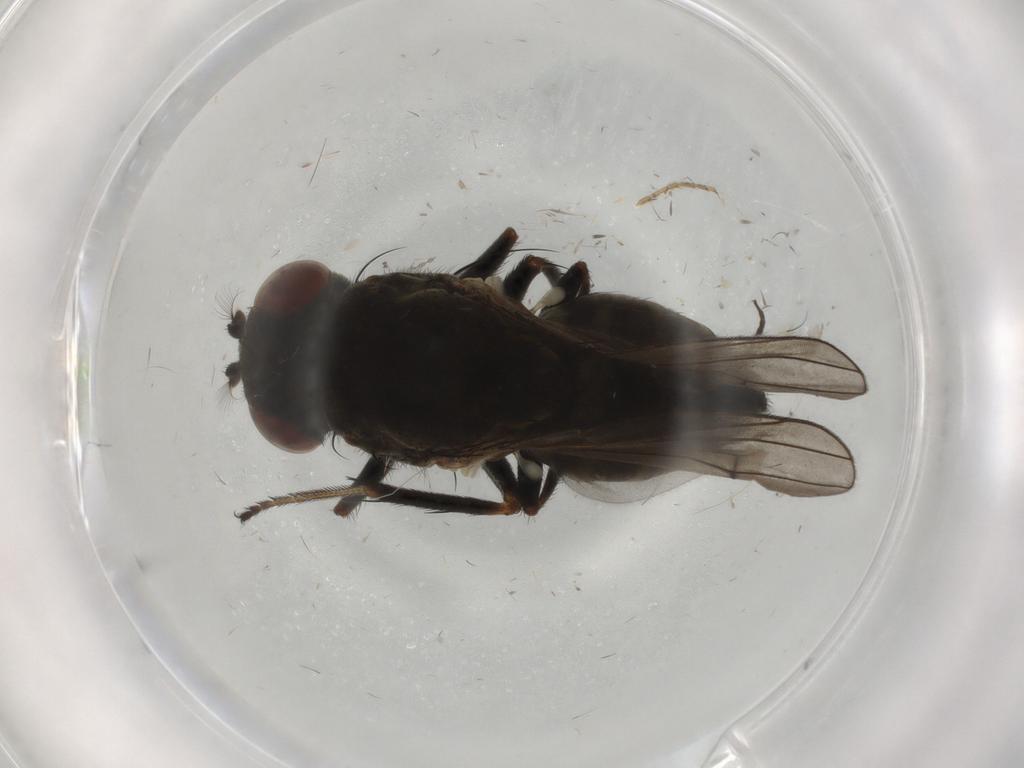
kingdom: Animalia
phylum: Arthropoda
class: Insecta
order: Diptera
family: Ephydridae
